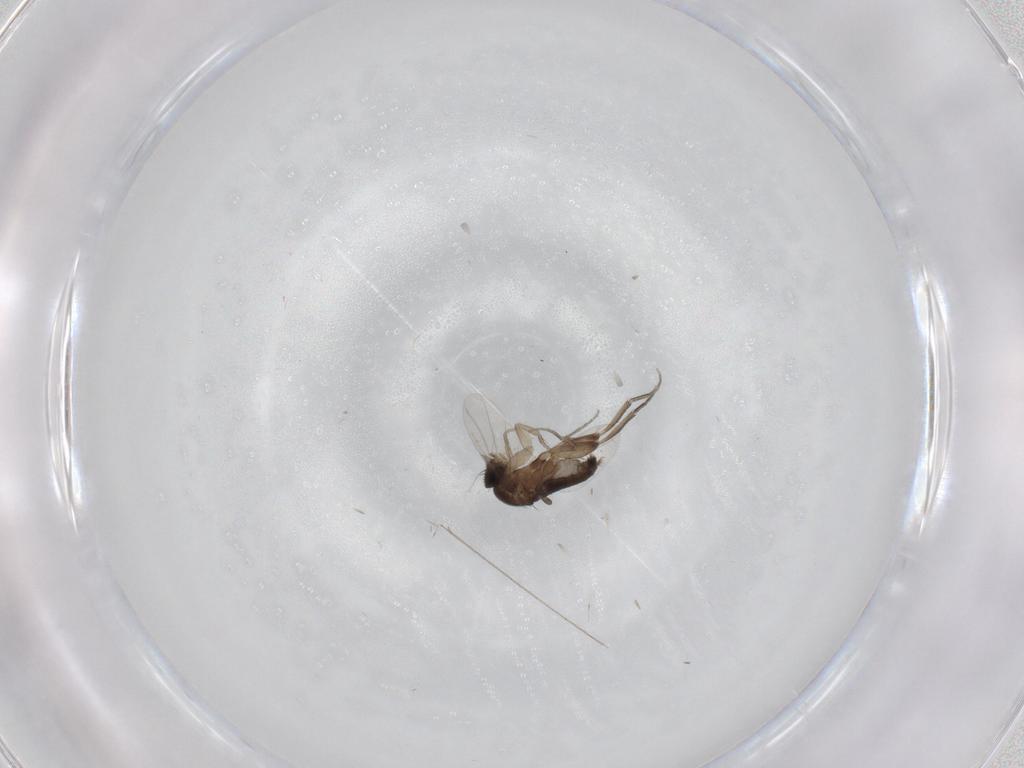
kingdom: Animalia
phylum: Arthropoda
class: Insecta
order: Diptera
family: Phoridae
